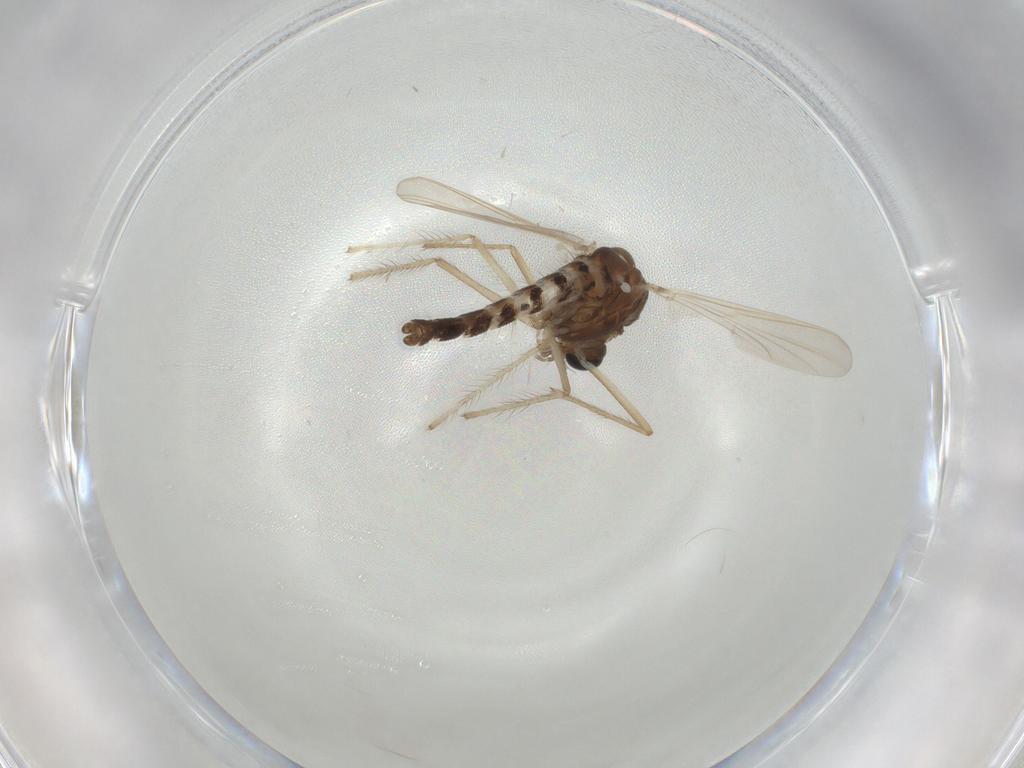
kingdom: Animalia
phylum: Arthropoda
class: Insecta
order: Diptera
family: Chironomidae
